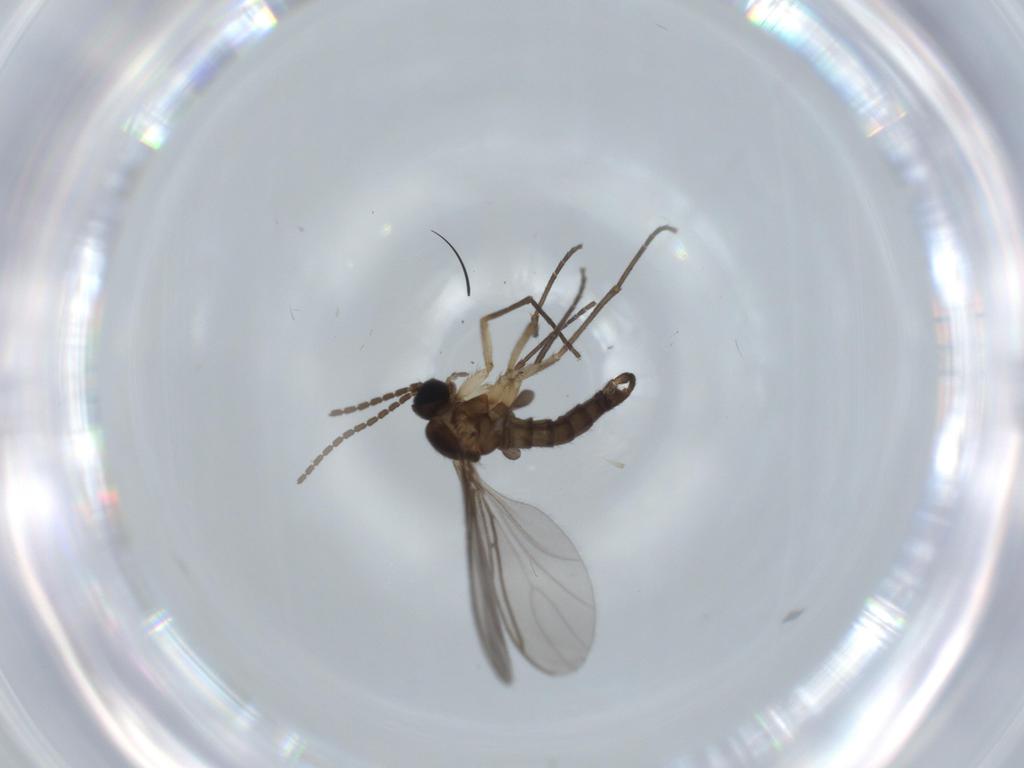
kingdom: Animalia
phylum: Arthropoda
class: Insecta
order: Diptera
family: Sciaridae
